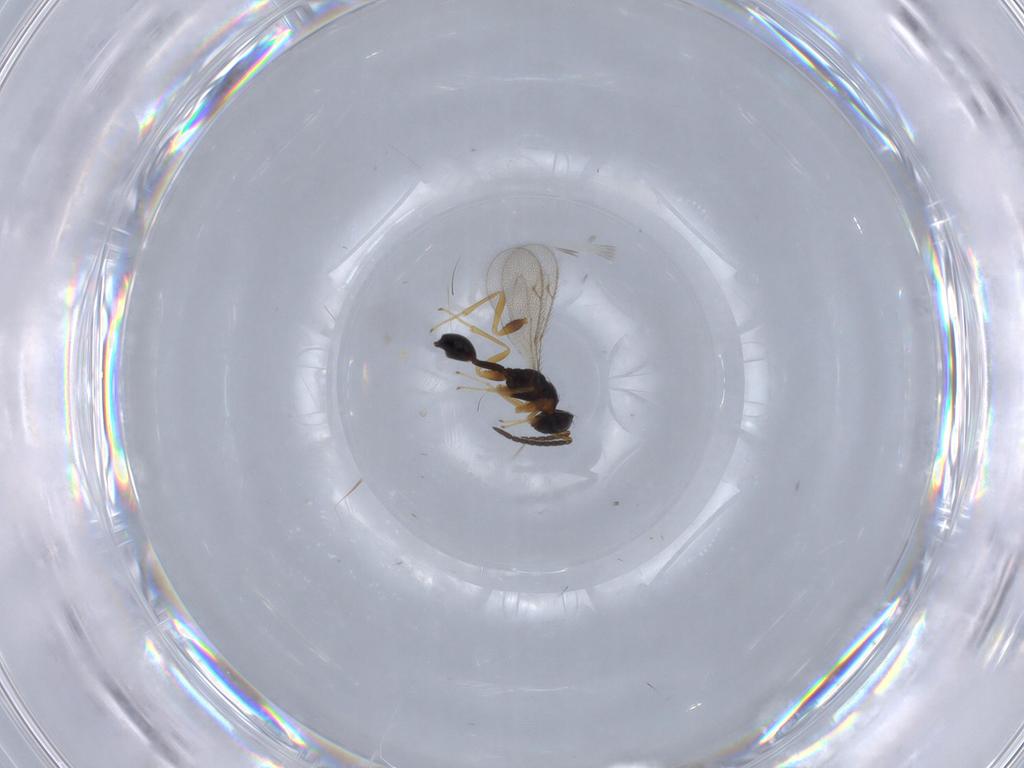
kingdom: Animalia
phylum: Arthropoda
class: Insecta
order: Hymenoptera
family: Diparidae
